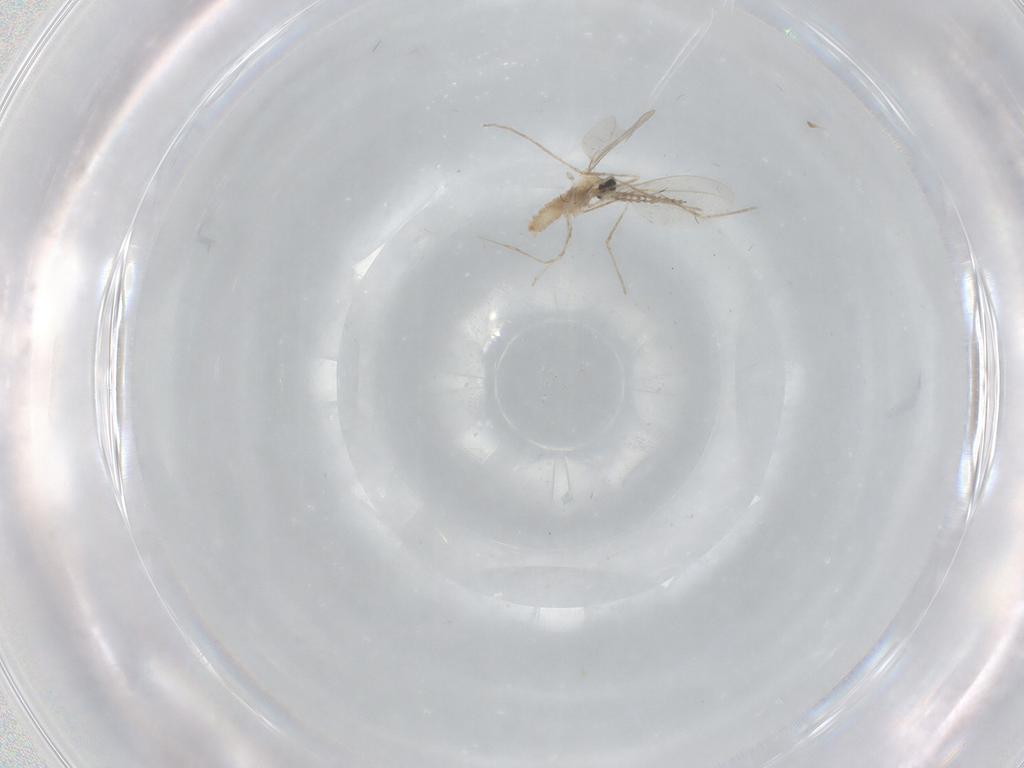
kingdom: Animalia
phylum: Arthropoda
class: Insecta
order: Diptera
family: Cecidomyiidae
